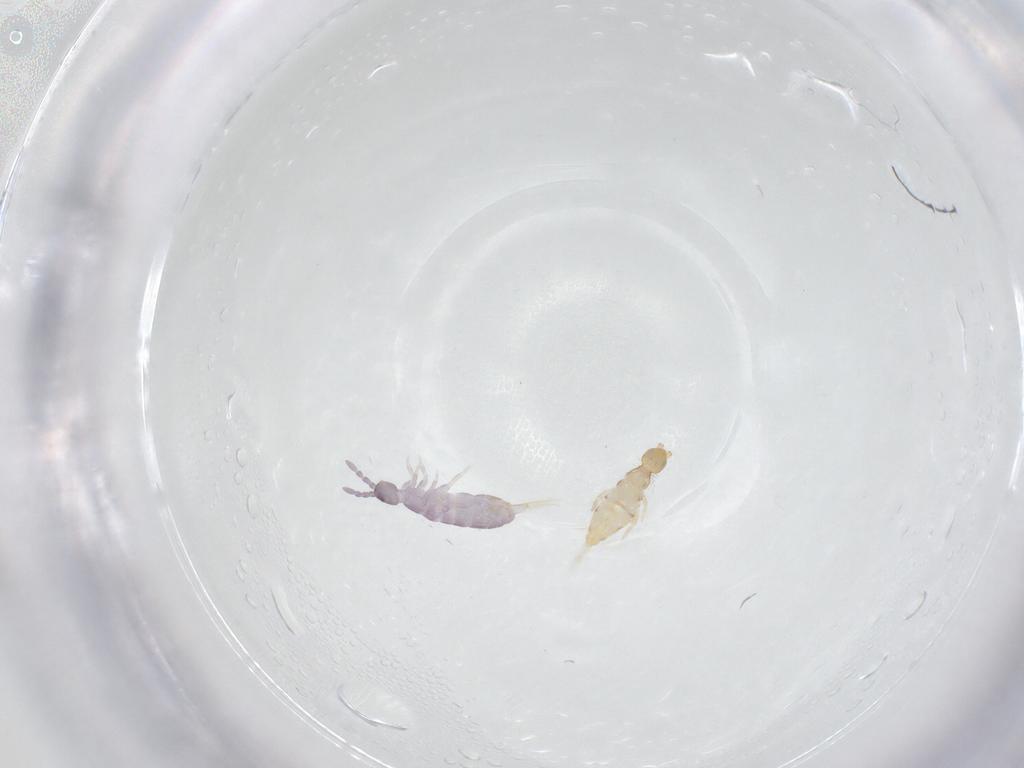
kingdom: Animalia
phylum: Arthropoda
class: Collembola
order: Entomobryomorpha
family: Isotomidae
